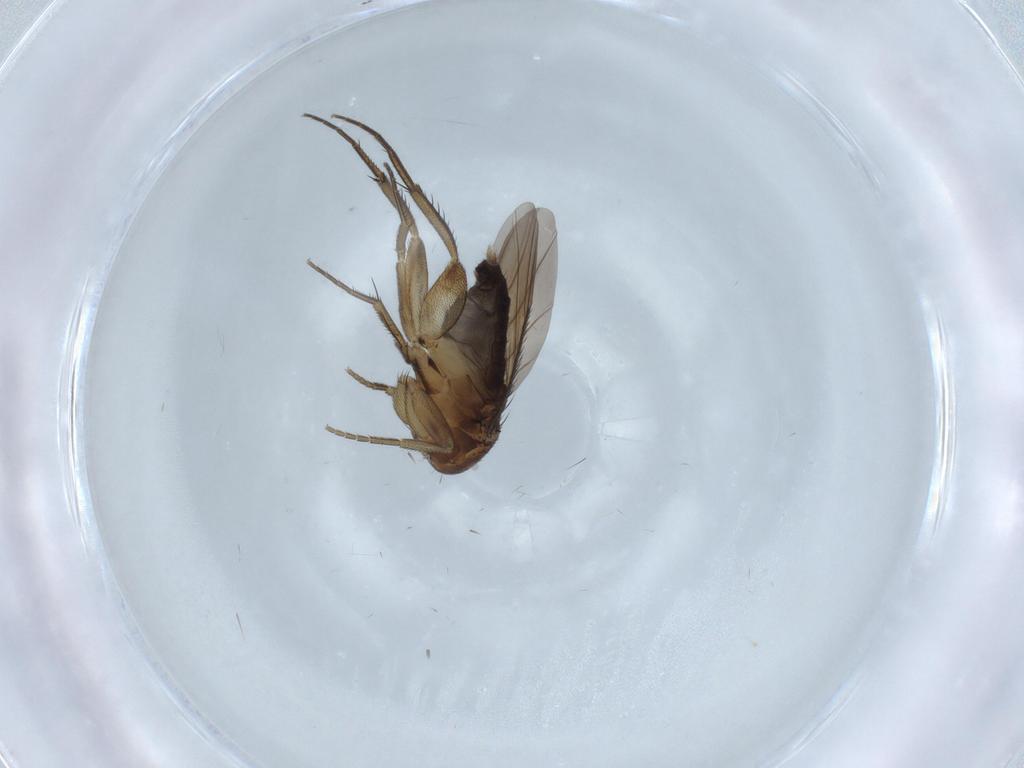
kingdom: Animalia
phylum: Arthropoda
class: Insecta
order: Diptera
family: Phoridae
